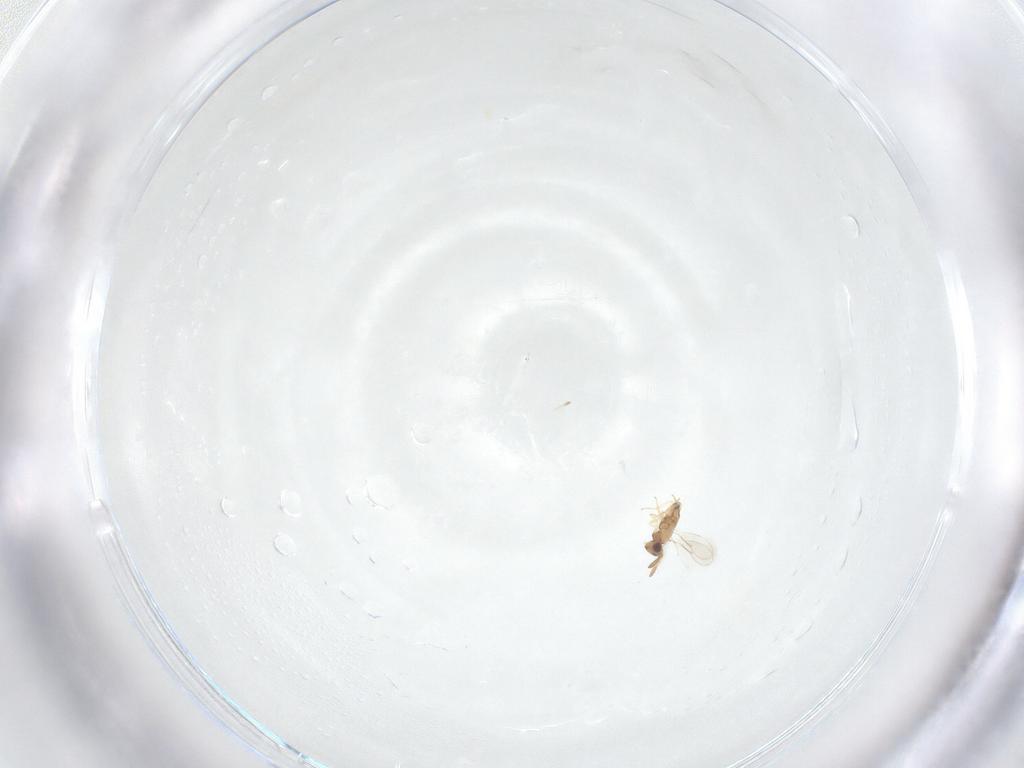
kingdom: Animalia
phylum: Arthropoda
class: Insecta
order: Hymenoptera
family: Aphelinidae
